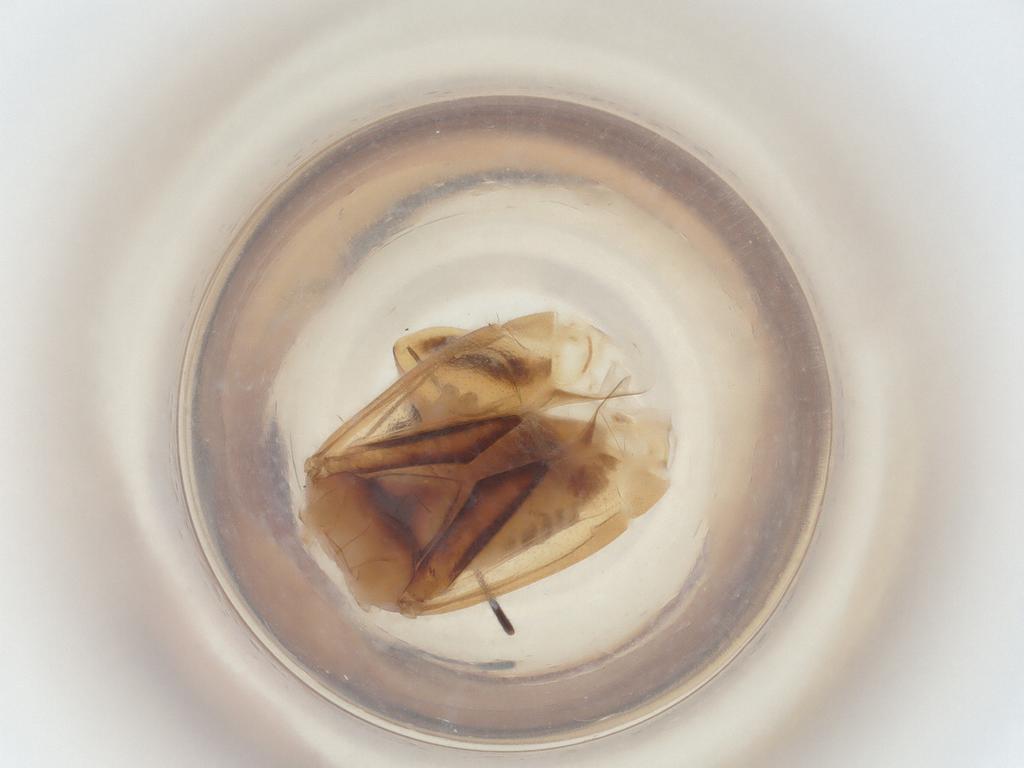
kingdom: Animalia
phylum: Arthropoda
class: Insecta
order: Hemiptera
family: Miridae
